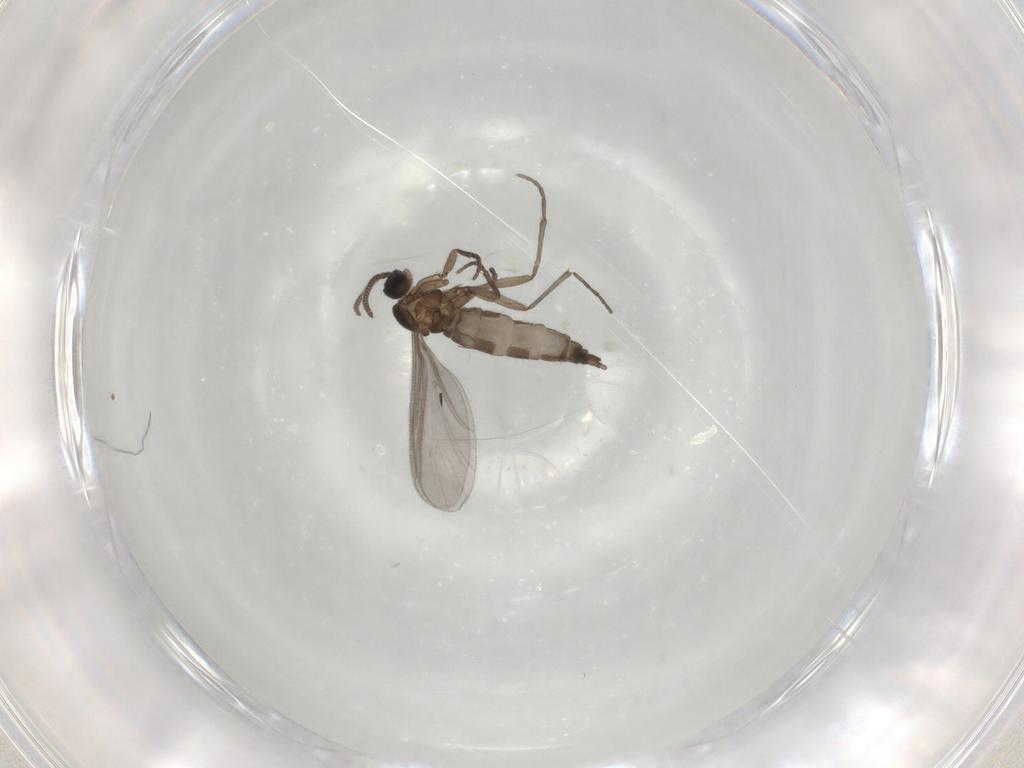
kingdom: Animalia
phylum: Arthropoda
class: Insecta
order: Diptera
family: Sciaridae
